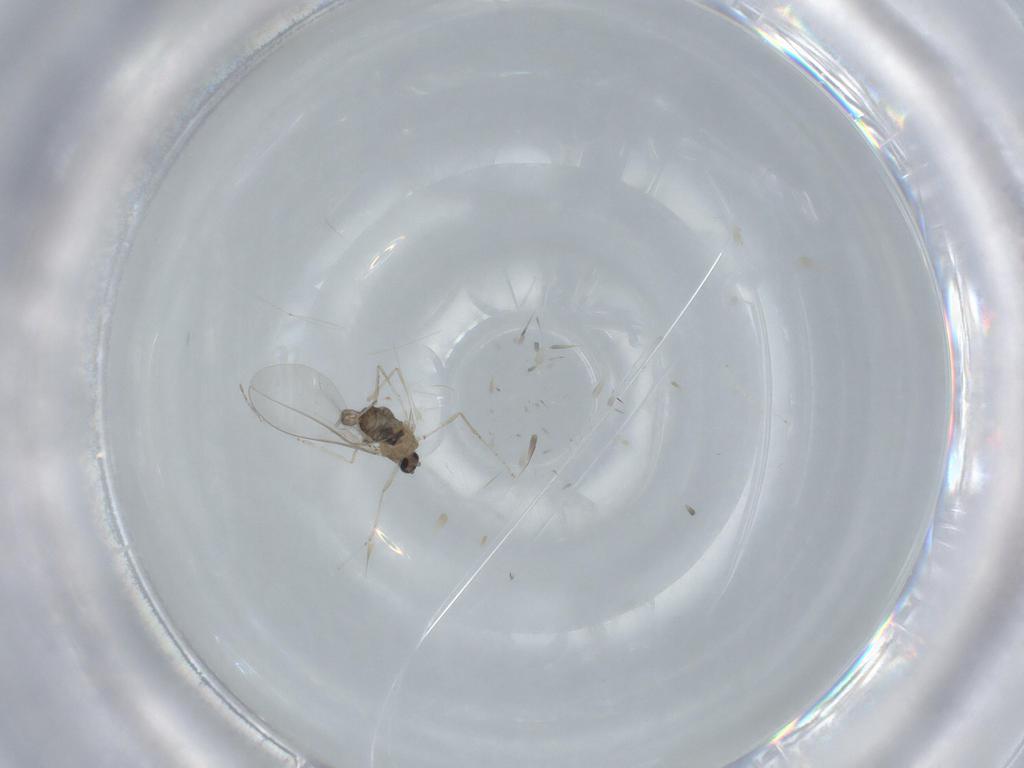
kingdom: Animalia
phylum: Arthropoda
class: Insecta
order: Diptera
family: Cecidomyiidae
